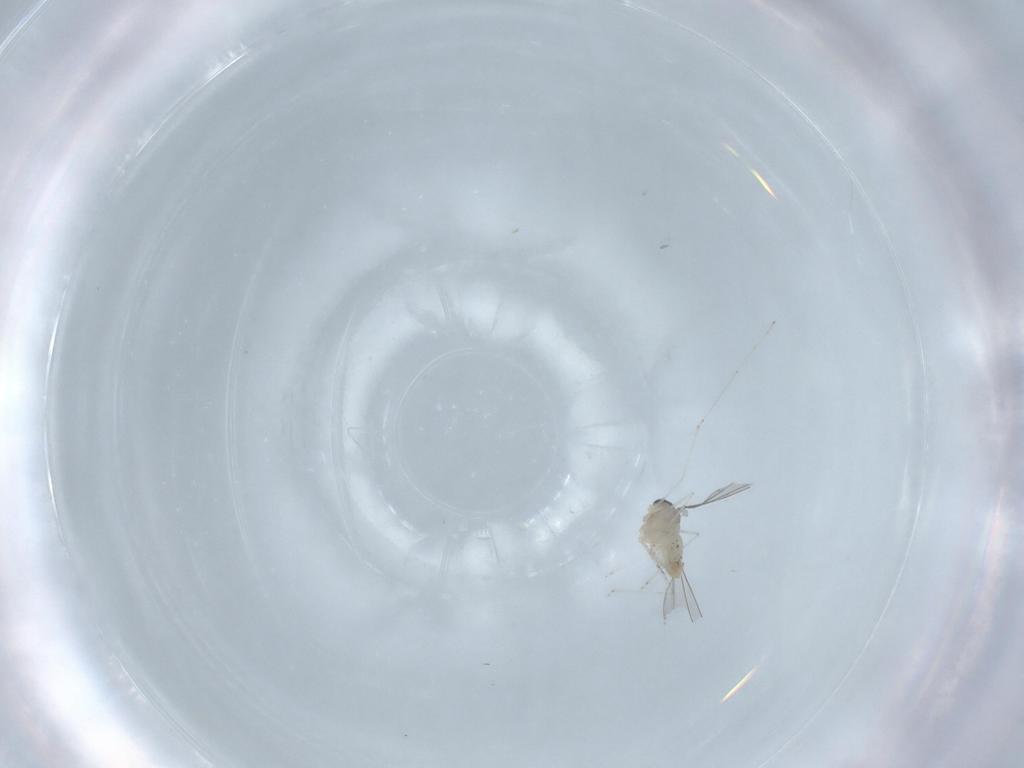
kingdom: Animalia
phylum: Arthropoda
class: Insecta
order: Diptera
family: Cecidomyiidae
